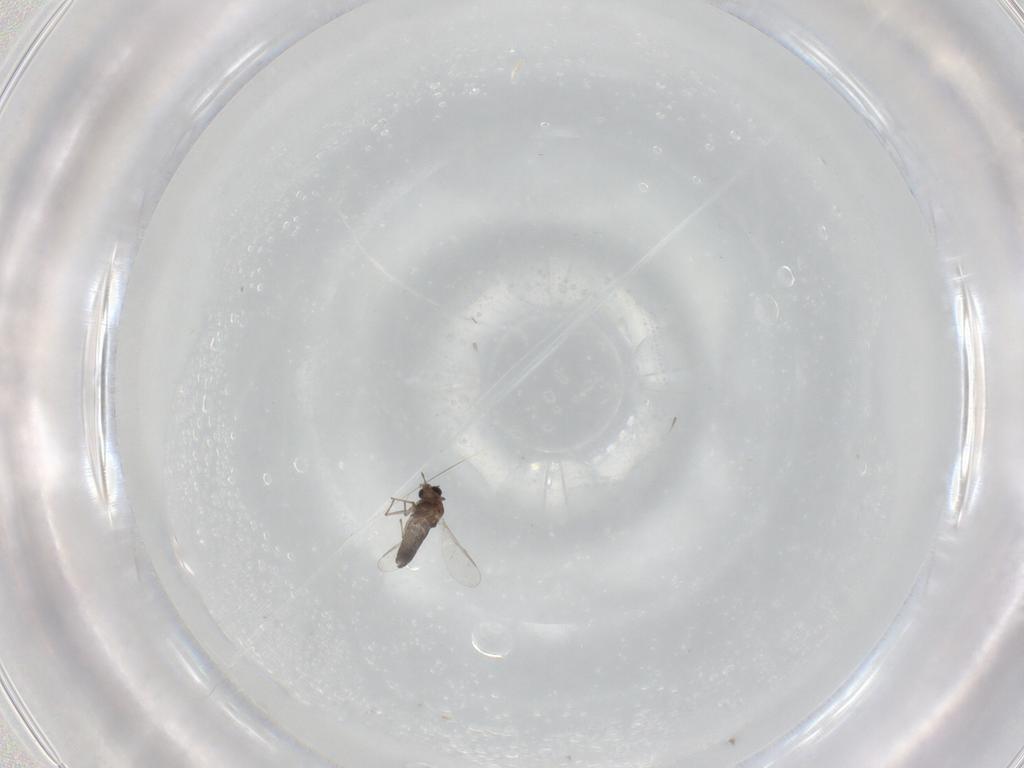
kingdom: Animalia
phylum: Arthropoda
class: Insecta
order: Diptera
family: Chironomidae
